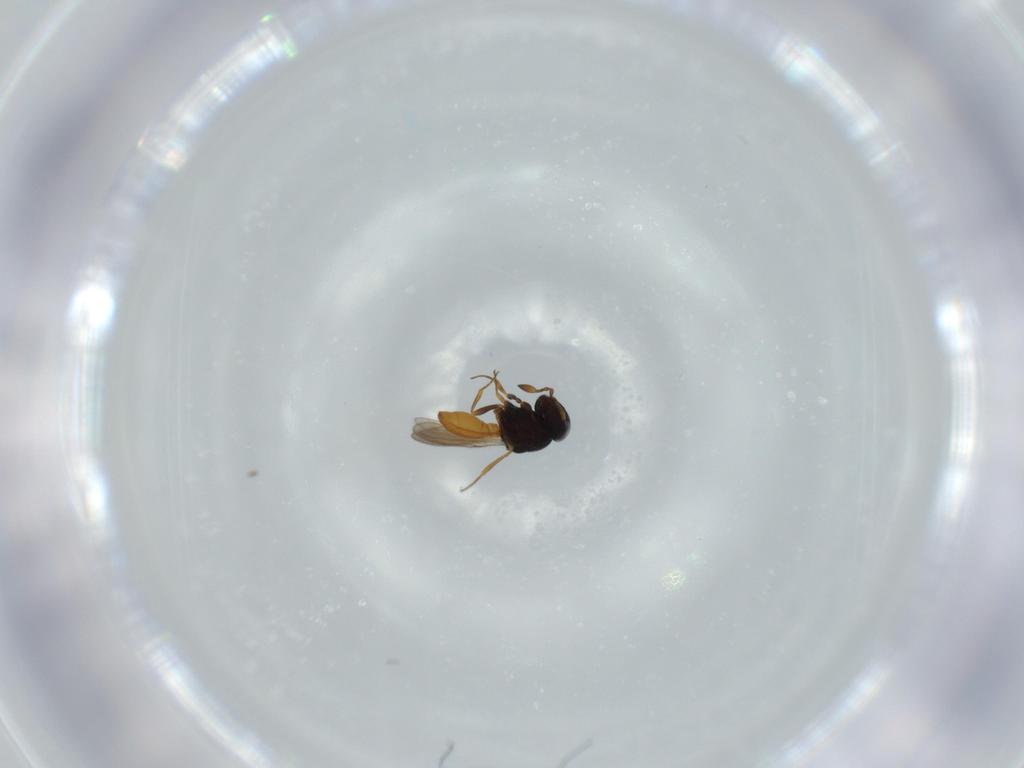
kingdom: Animalia
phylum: Arthropoda
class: Insecta
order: Hymenoptera
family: Scelionidae
